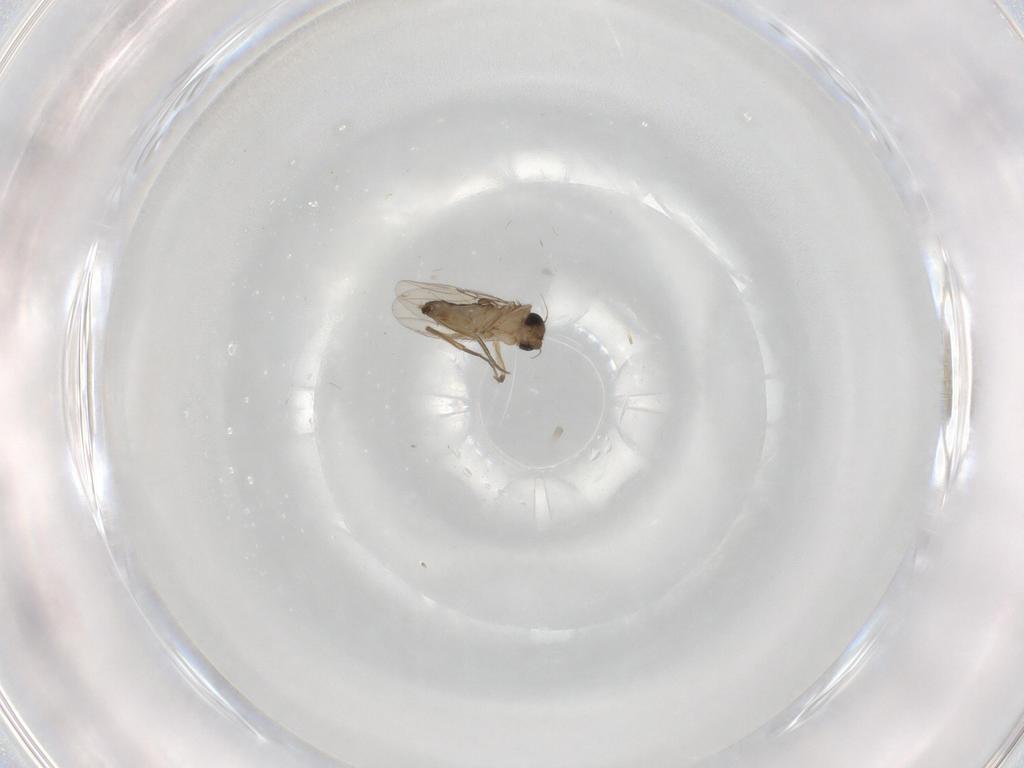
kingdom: Animalia
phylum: Arthropoda
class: Insecta
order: Diptera
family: Phoridae
